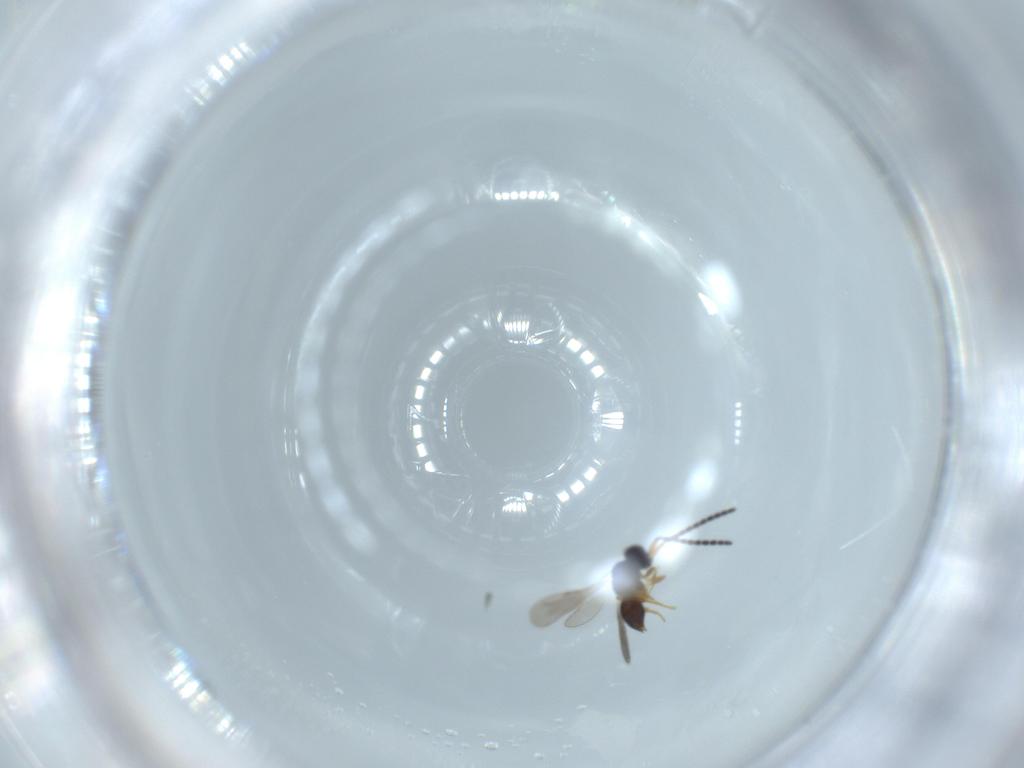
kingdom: Animalia
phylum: Arthropoda
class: Insecta
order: Hymenoptera
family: Ceraphronidae
